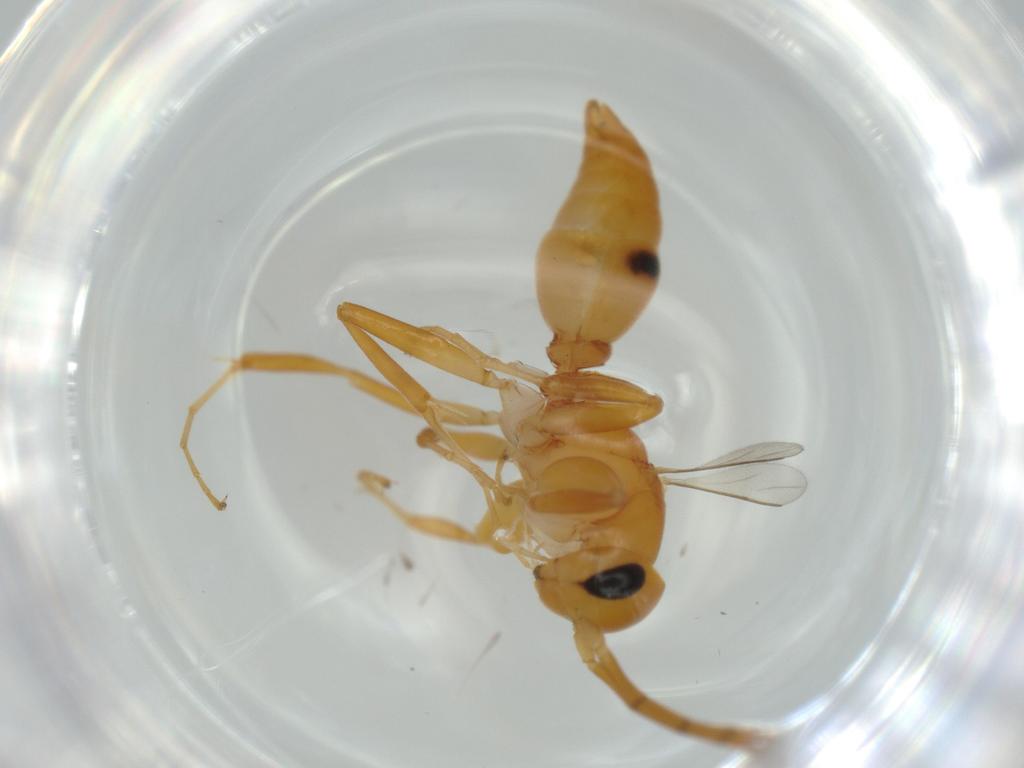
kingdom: Animalia
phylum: Arthropoda
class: Insecta
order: Hymenoptera
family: Rhopalosomatidae
